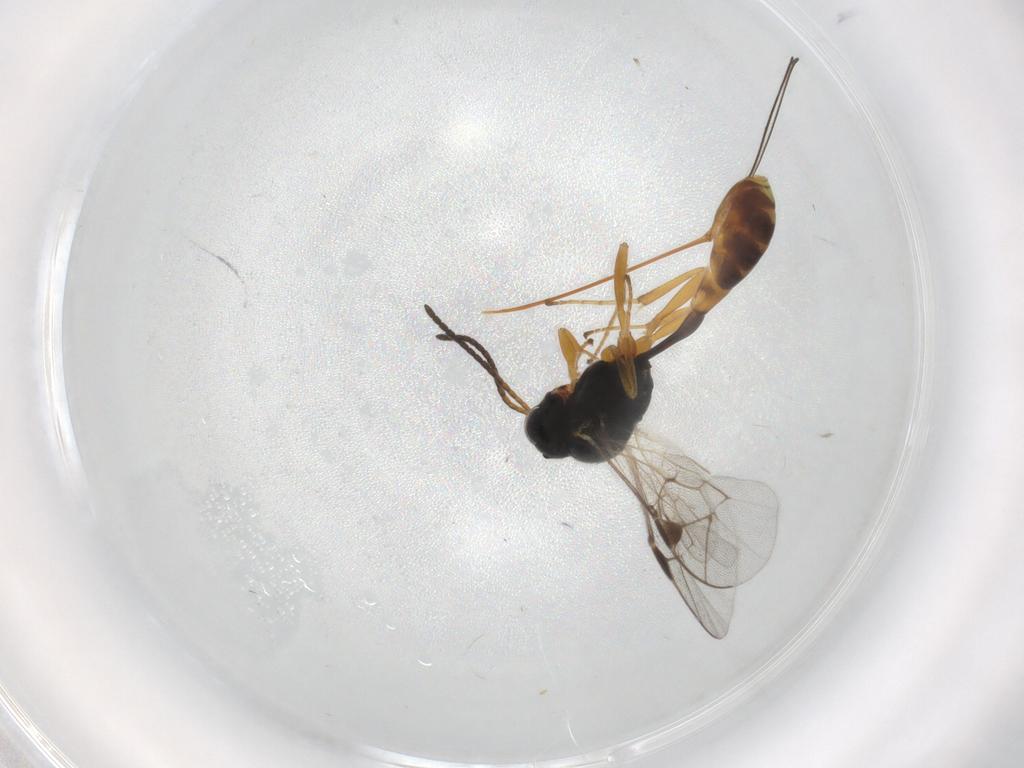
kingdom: Animalia
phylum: Arthropoda
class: Insecta
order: Hymenoptera
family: Ichneumonidae
